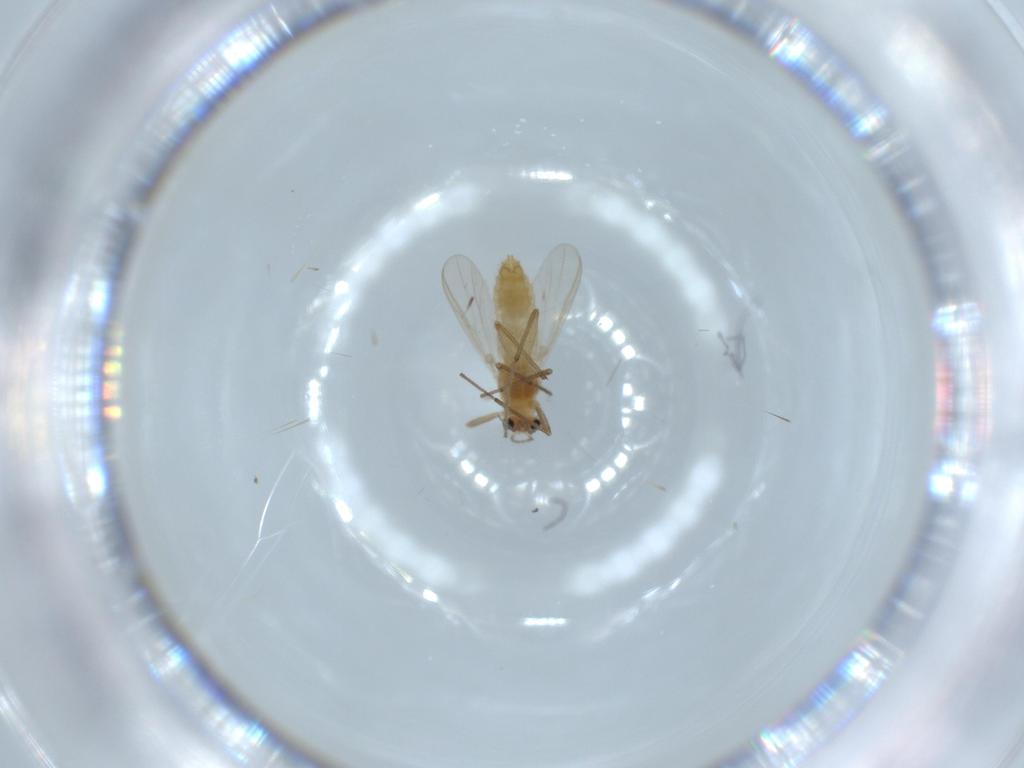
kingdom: Animalia
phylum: Arthropoda
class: Insecta
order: Diptera
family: Chironomidae
